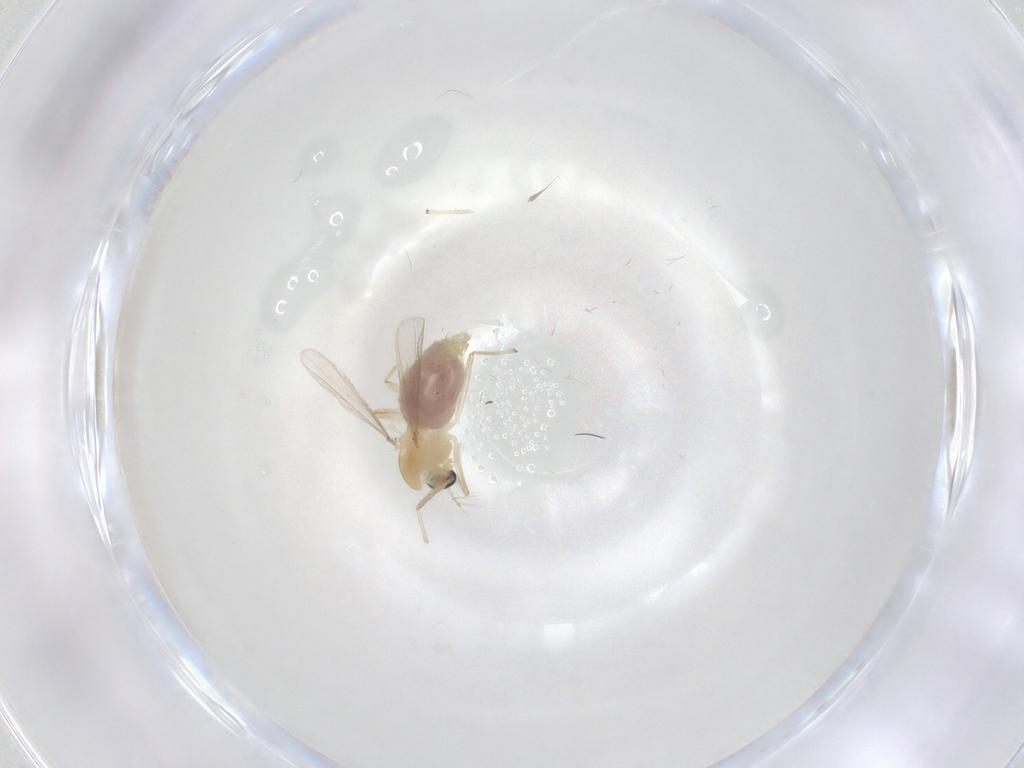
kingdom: Animalia
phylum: Arthropoda
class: Insecta
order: Diptera
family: Chironomidae
